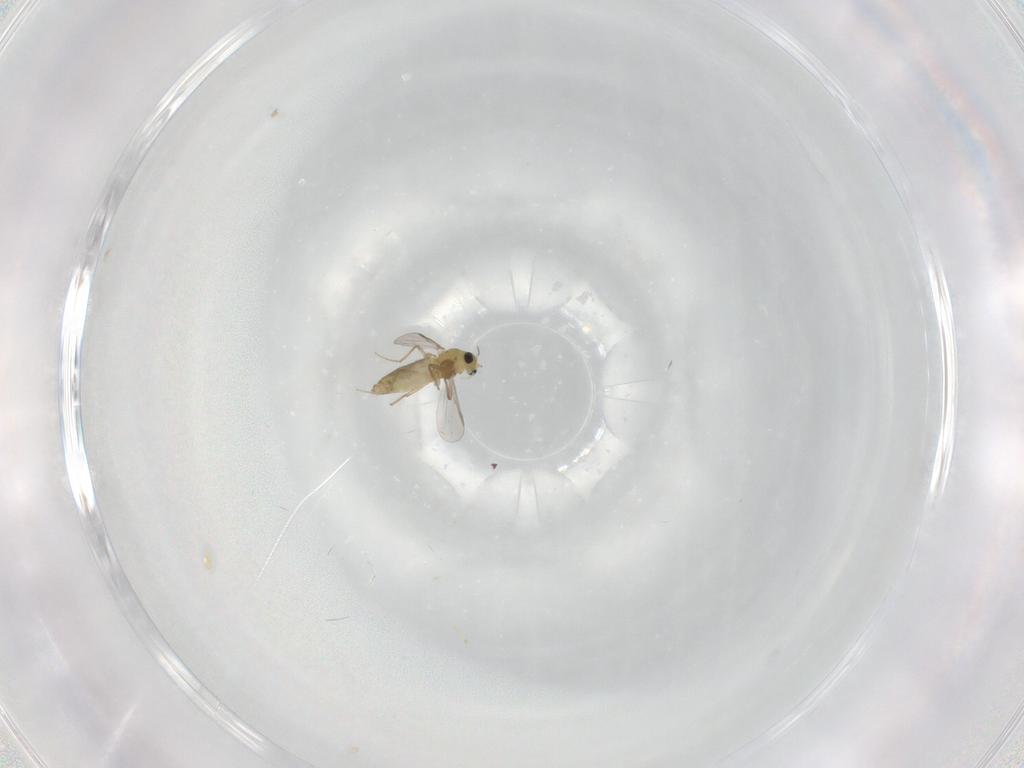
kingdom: Animalia
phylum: Arthropoda
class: Insecta
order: Diptera
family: Chironomidae
